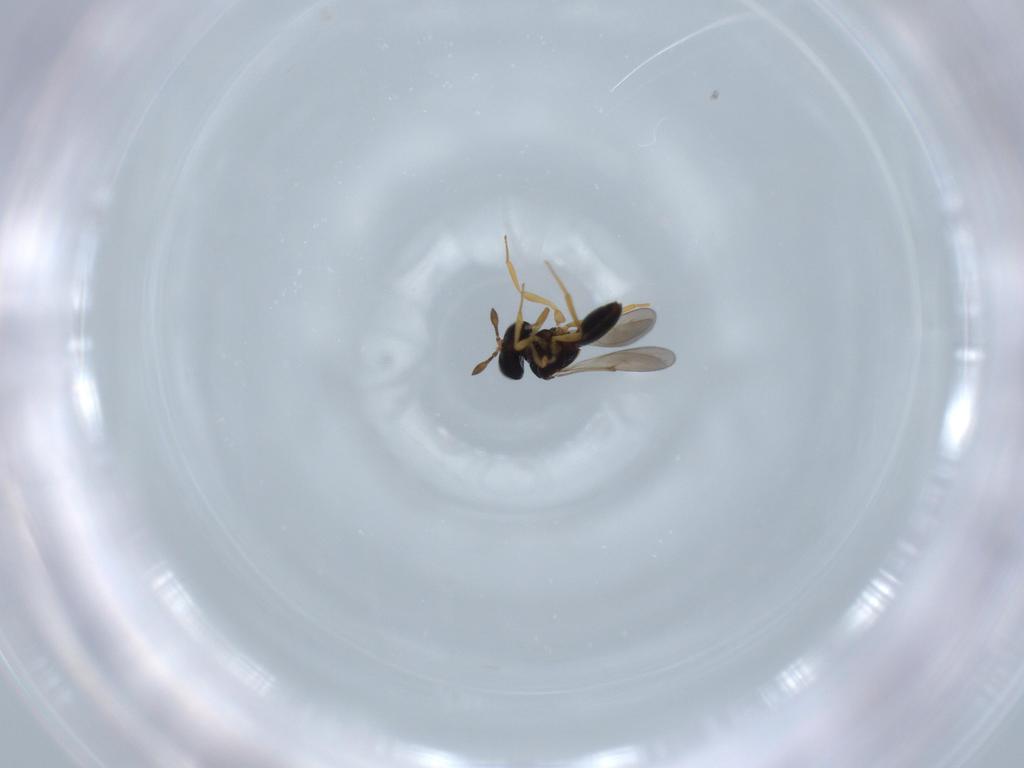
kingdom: Animalia
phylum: Arthropoda
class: Insecta
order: Hymenoptera
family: Scelionidae
